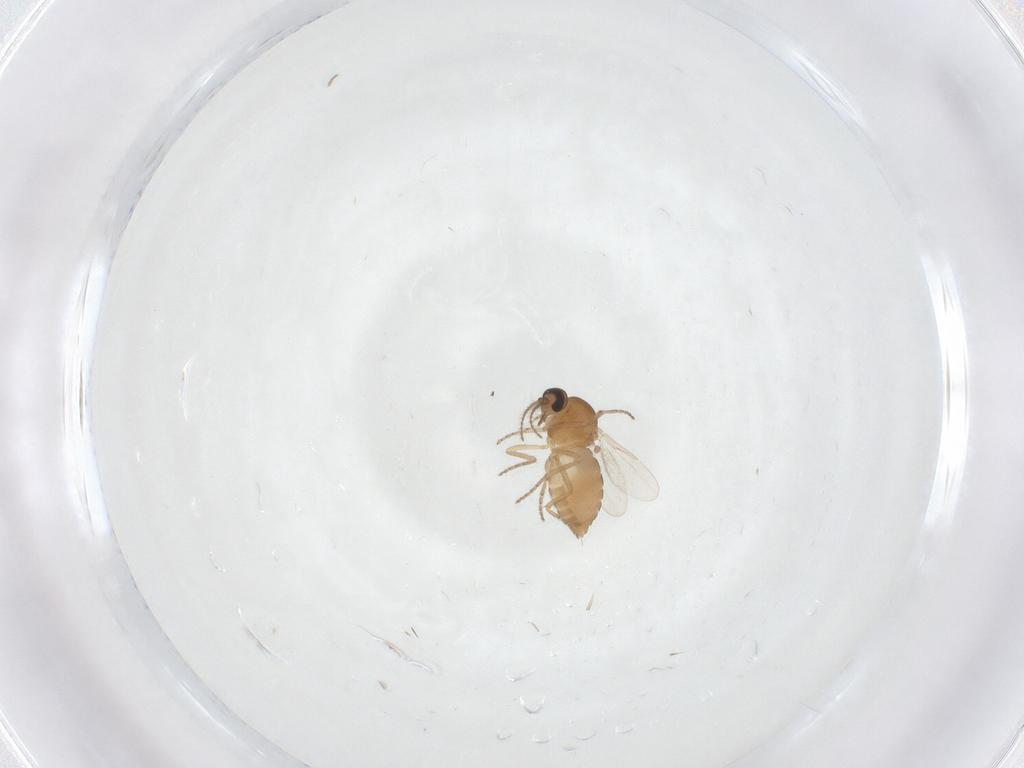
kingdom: Animalia
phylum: Arthropoda
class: Insecta
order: Diptera
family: Ceratopogonidae
